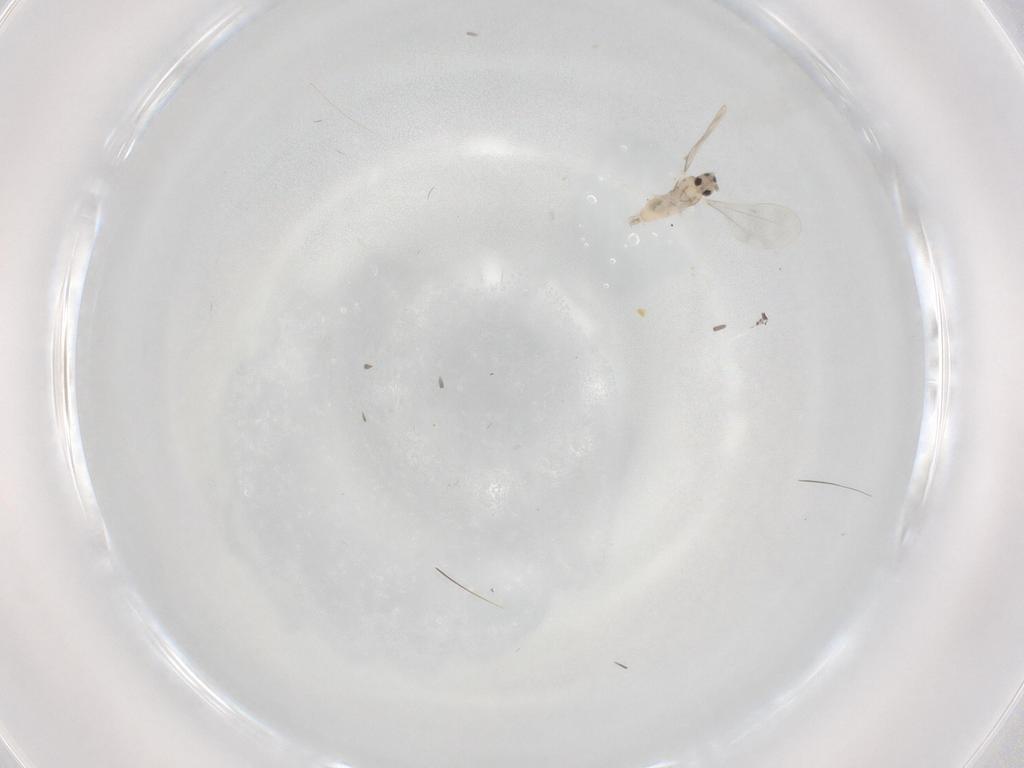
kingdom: Animalia
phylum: Arthropoda
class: Insecta
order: Diptera
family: Cecidomyiidae
